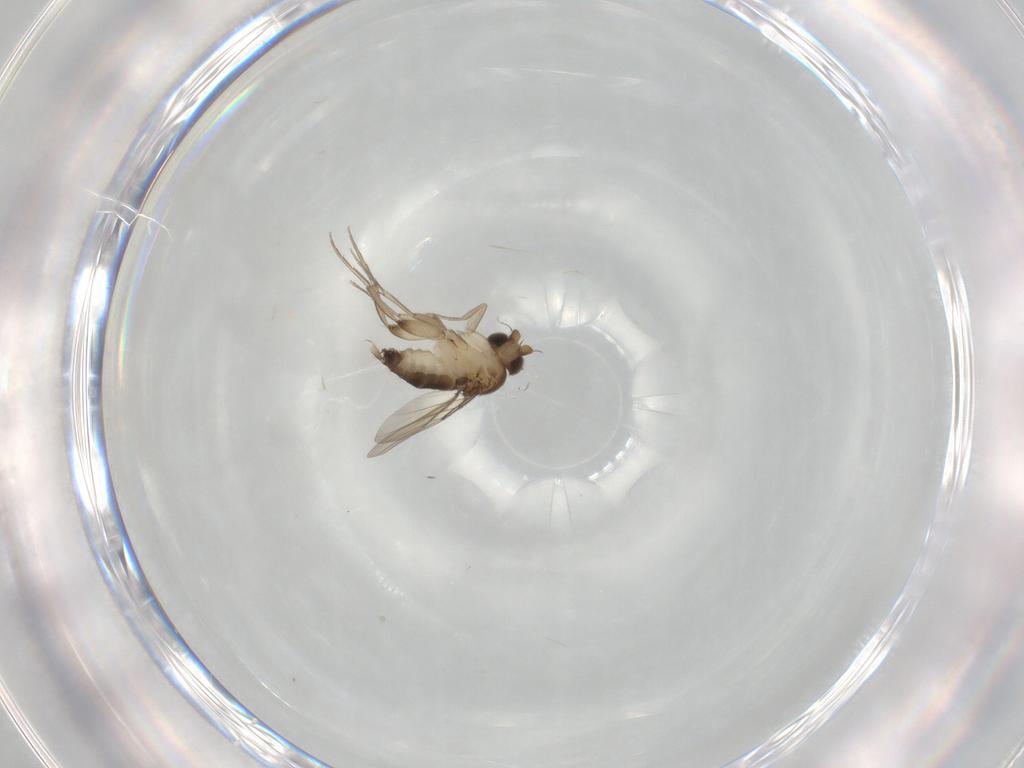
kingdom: Animalia
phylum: Arthropoda
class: Insecta
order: Diptera
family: Phoridae
